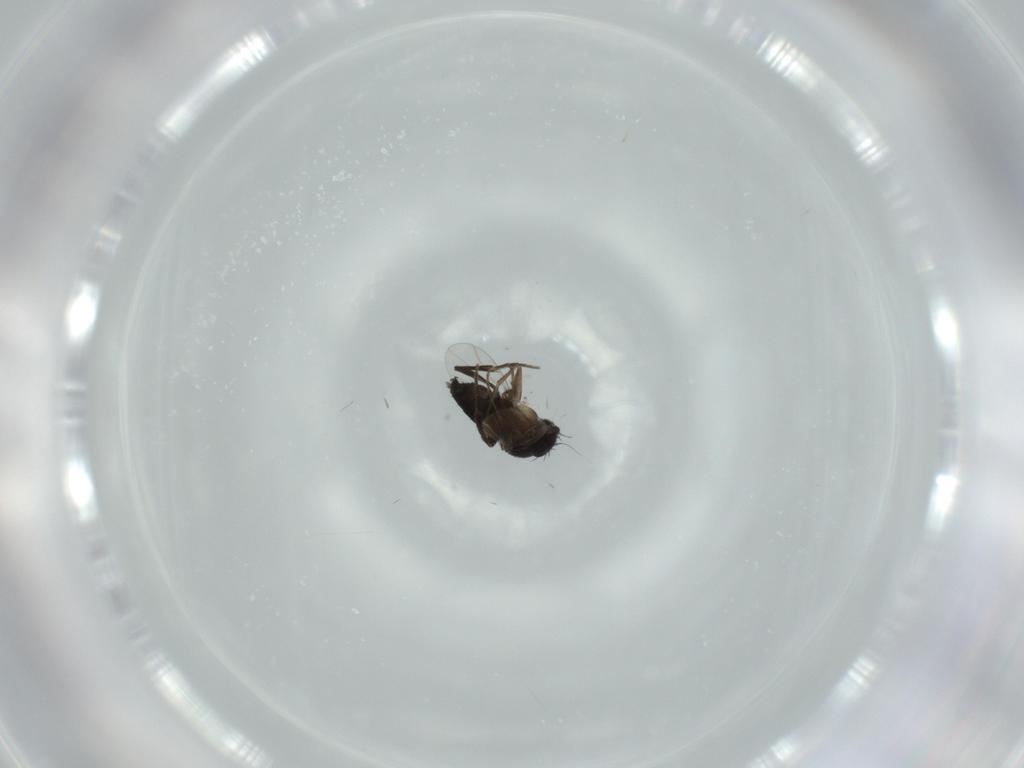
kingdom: Animalia
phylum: Arthropoda
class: Insecta
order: Diptera
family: Phoridae
